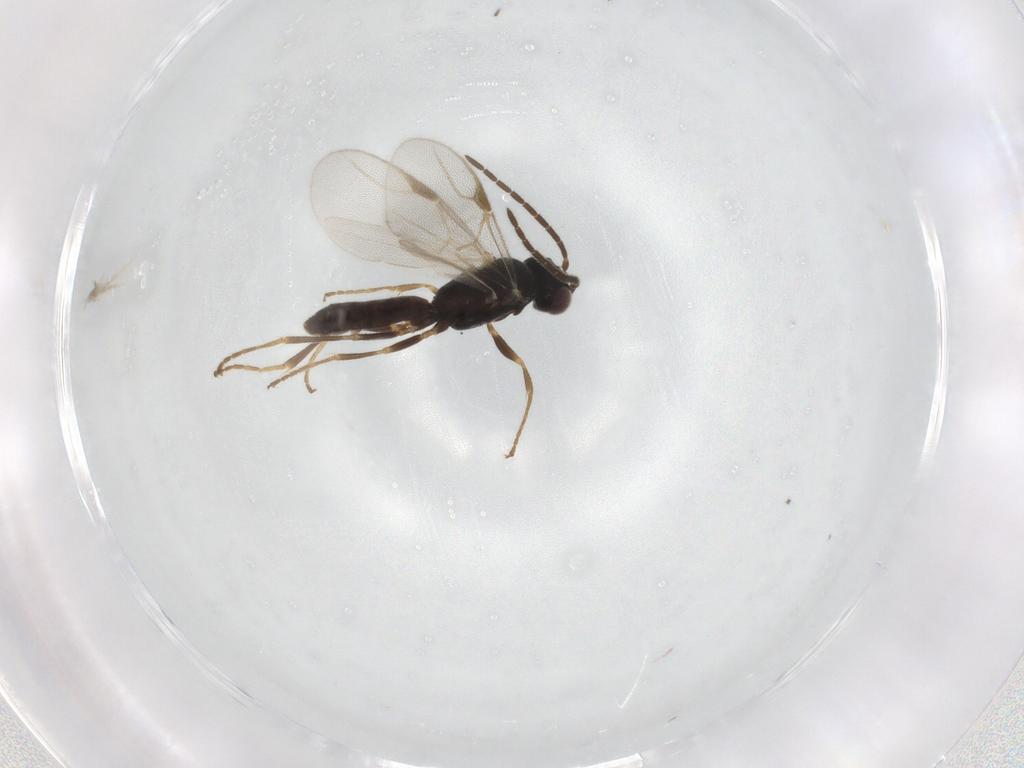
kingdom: Animalia
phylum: Arthropoda
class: Insecta
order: Hymenoptera
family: Dryinidae
